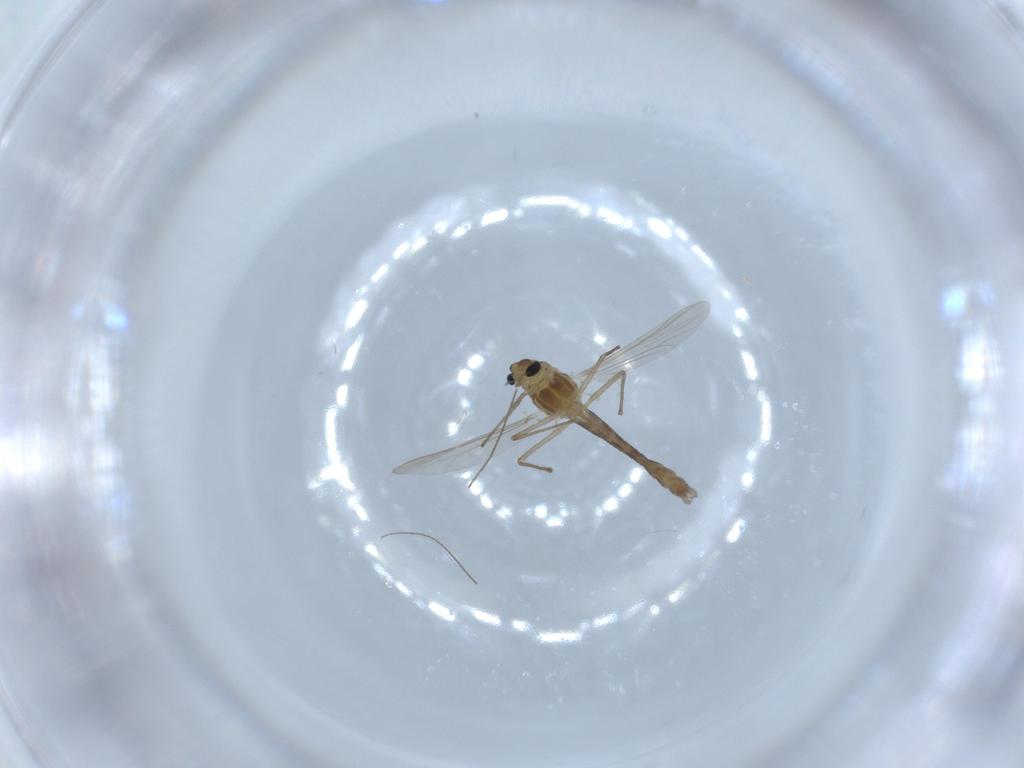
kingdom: Animalia
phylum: Arthropoda
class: Insecta
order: Diptera
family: Chironomidae
